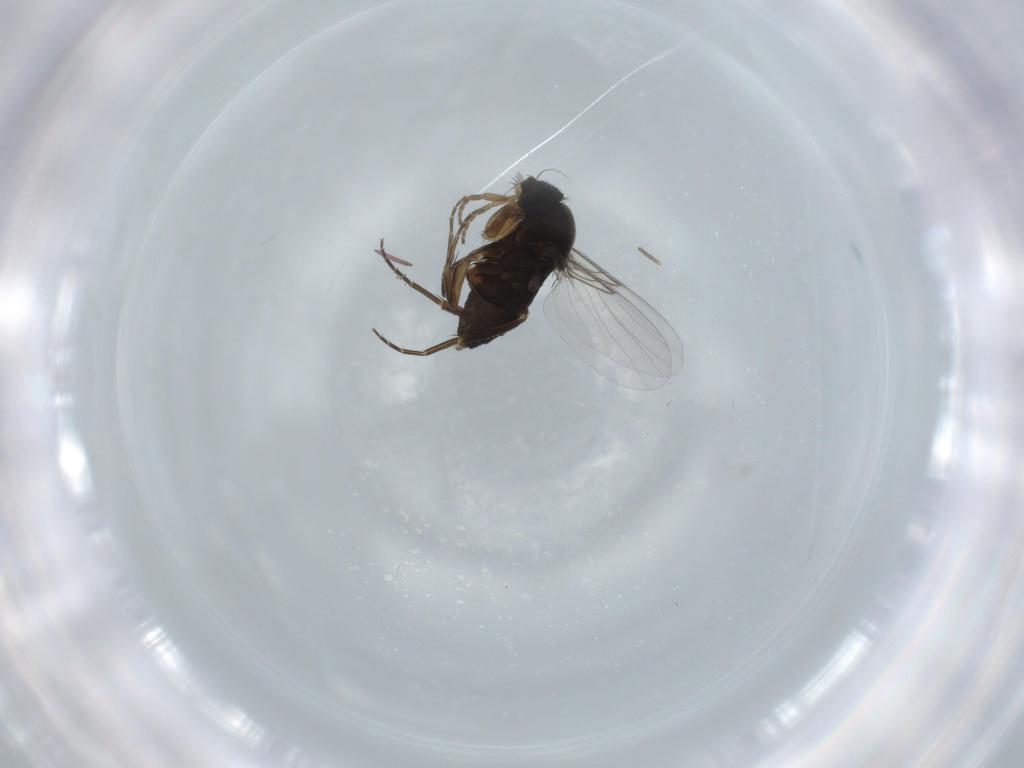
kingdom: Animalia
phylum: Arthropoda
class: Insecta
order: Diptera
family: Phoridae
